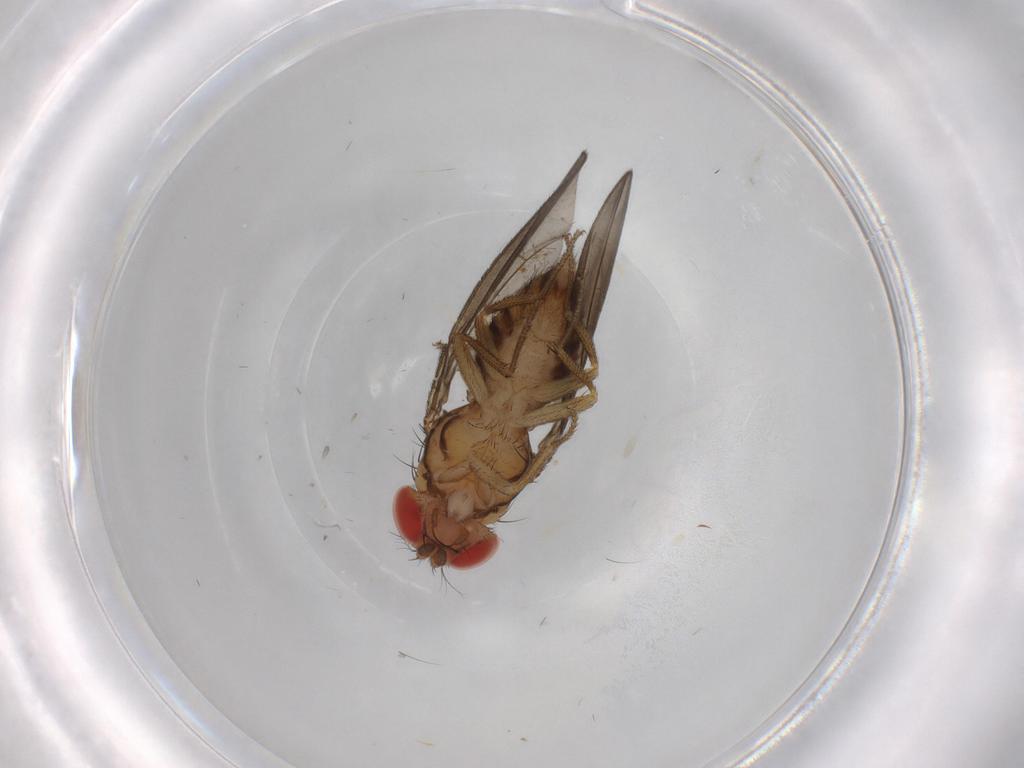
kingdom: Animalia
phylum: Arthropoda
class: Insecta
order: Diptera
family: Drosophilidae
